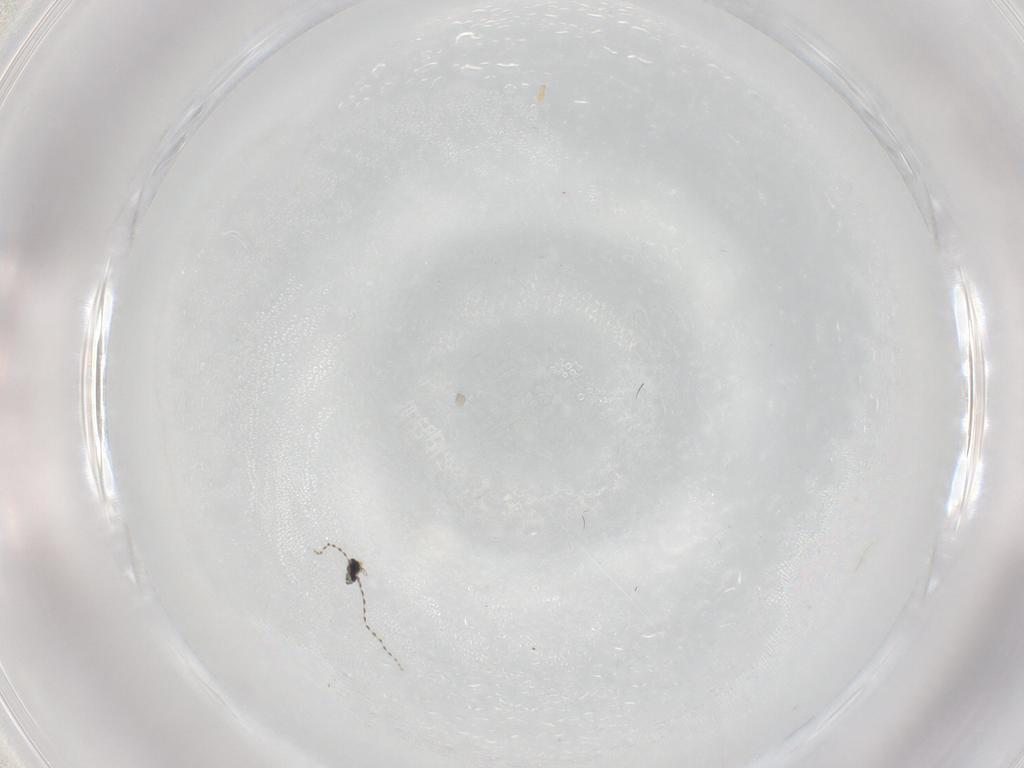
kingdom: Animalia
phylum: Arthropoda
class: Insecta
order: Diptera
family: Cecidomyiidae
